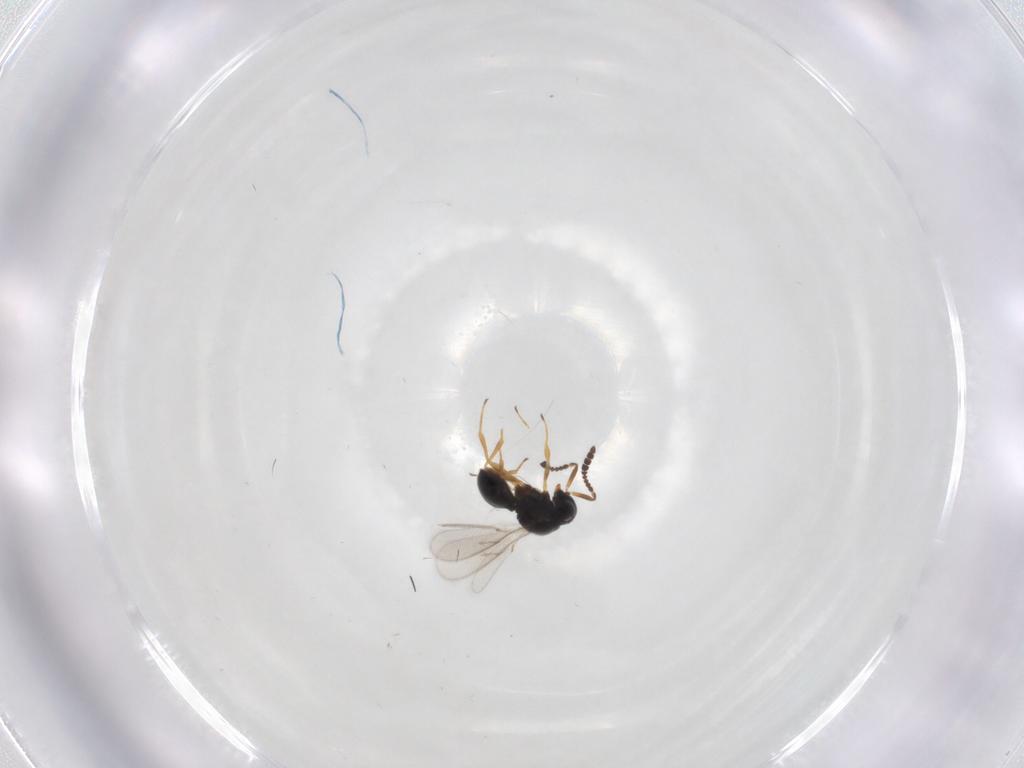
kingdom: Animalia
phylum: Arthropoda
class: Insecta
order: Hymenoptera
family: Scelionidae
